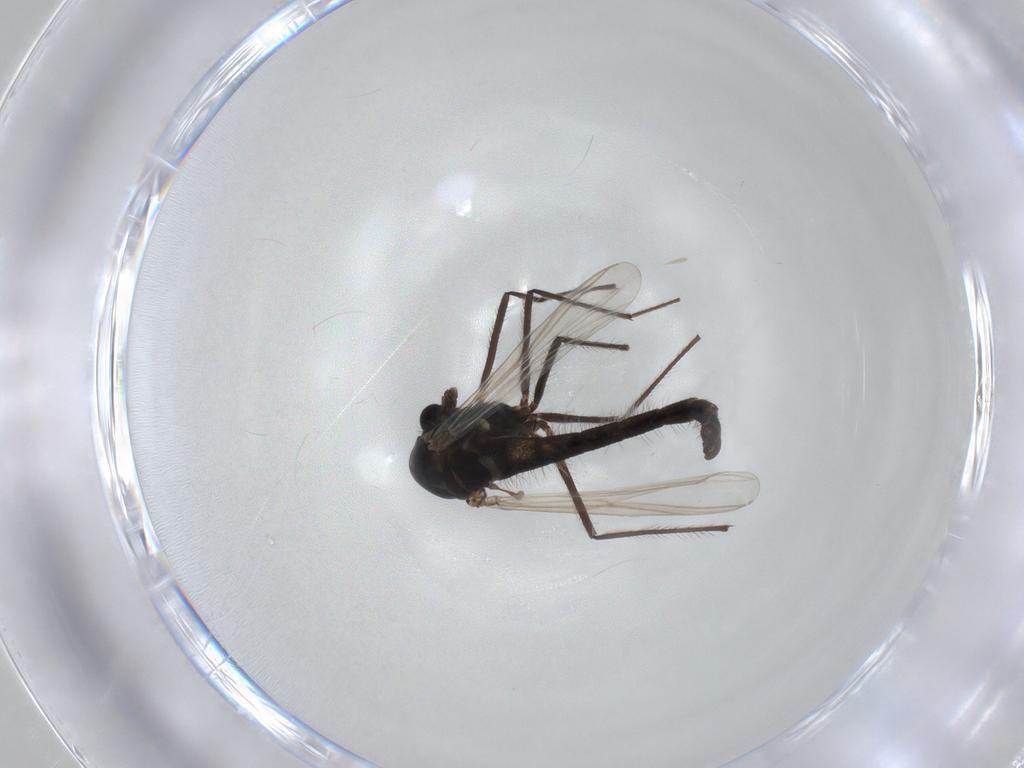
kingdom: Animalia
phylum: Arthropoda
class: Insecta
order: Diptera
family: Chironomidae
